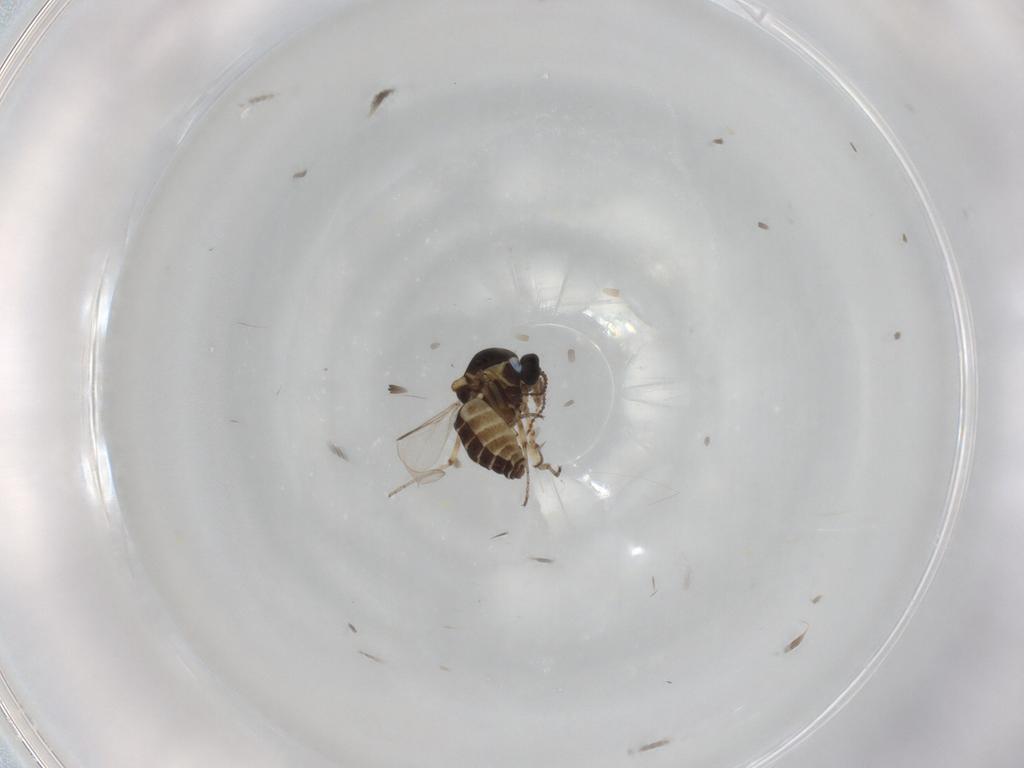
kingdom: Animalia
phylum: Arthropoda
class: Insecta
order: Diptera
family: Ceratopogonidae
